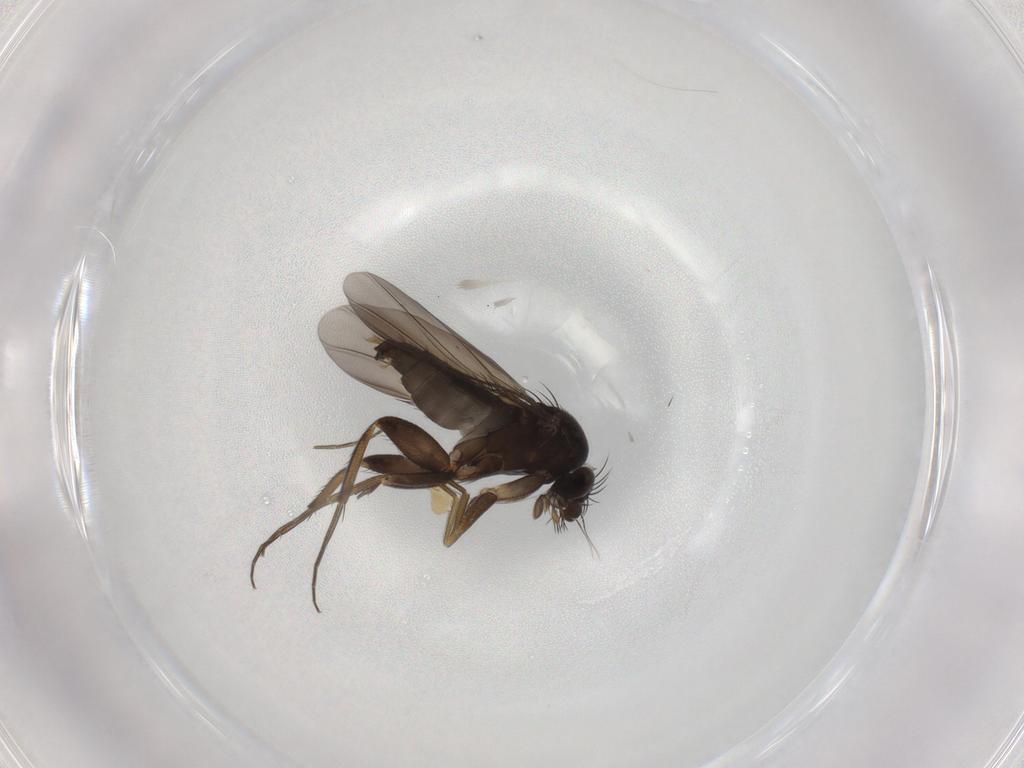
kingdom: Animalia
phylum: Arthropoda
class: Insecta
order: Diptera
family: Phoridae
